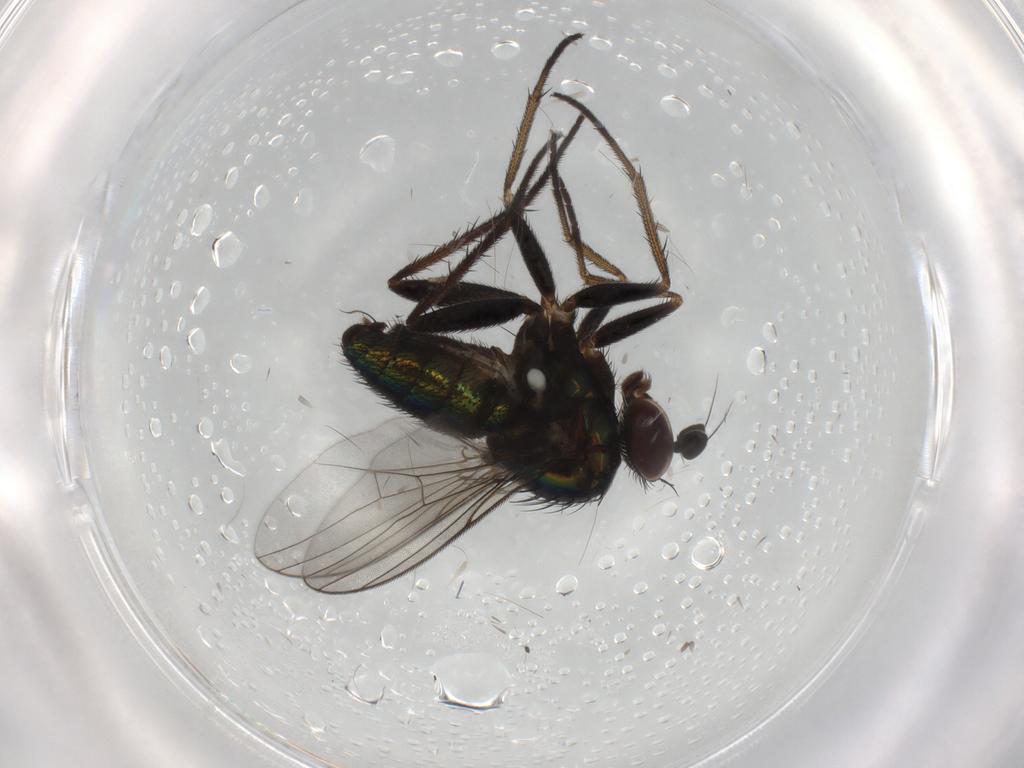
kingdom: Animalia
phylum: Arthropoda
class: Insecta
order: Diptera
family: Dolichopodidae
